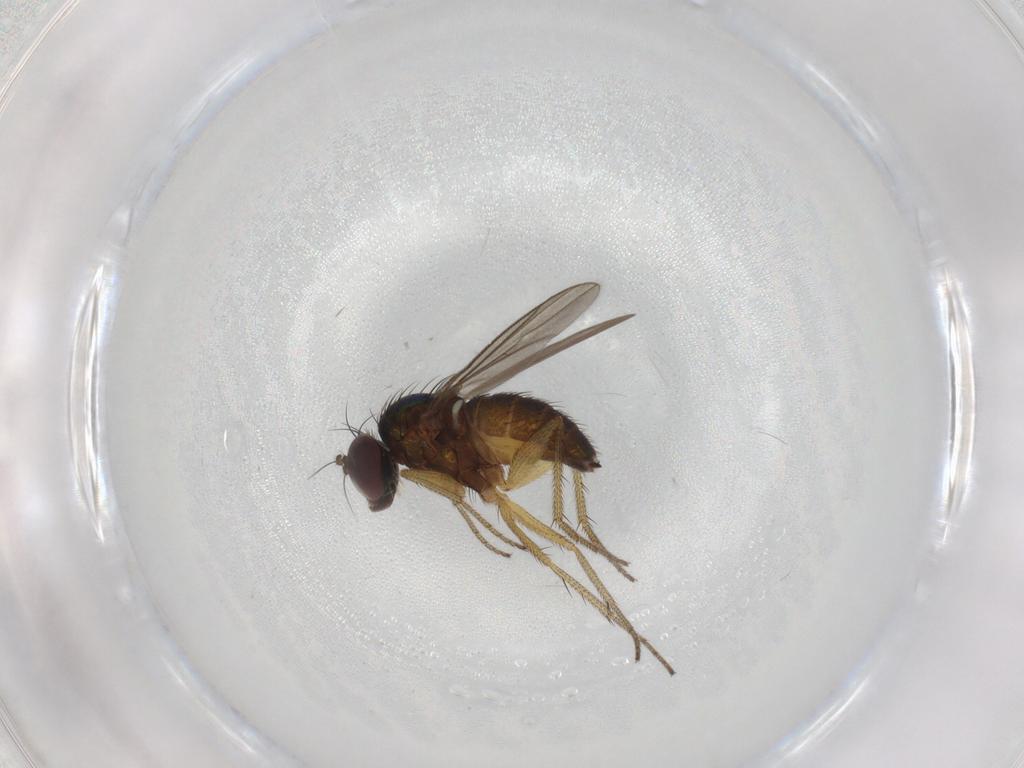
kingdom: Animalia
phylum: Arthropoda
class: Insecta
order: Diptera
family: Dolichopodidae
